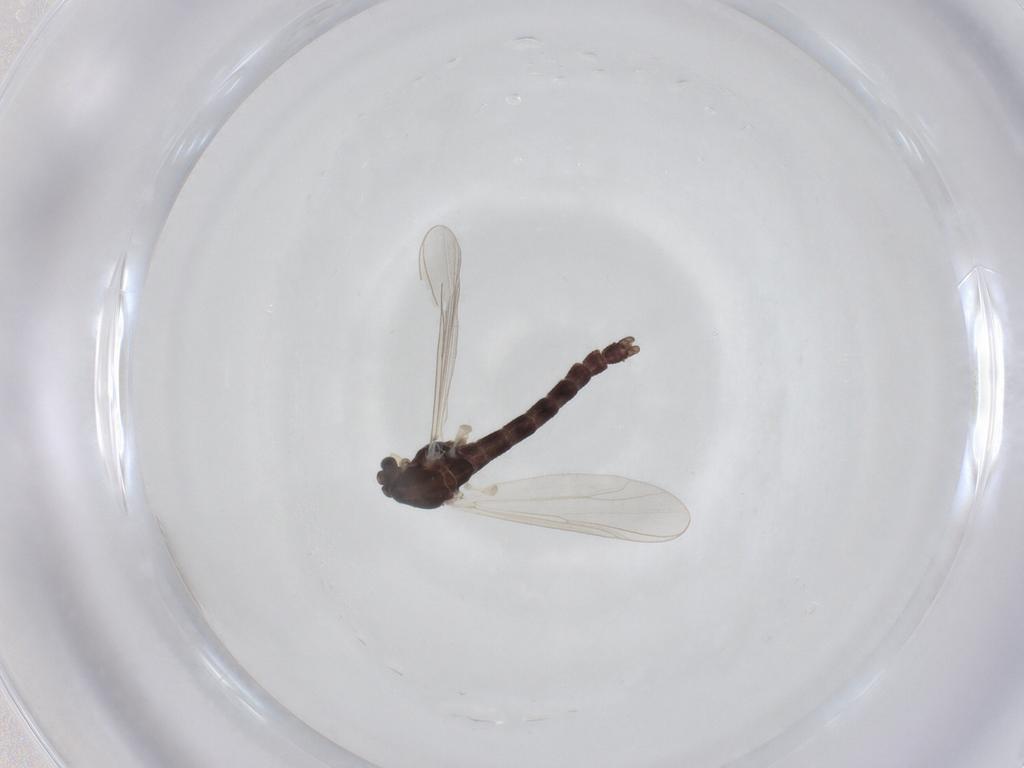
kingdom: Animalia
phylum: Arthropoda
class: Insecta
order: Diptera
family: Chironomidae
